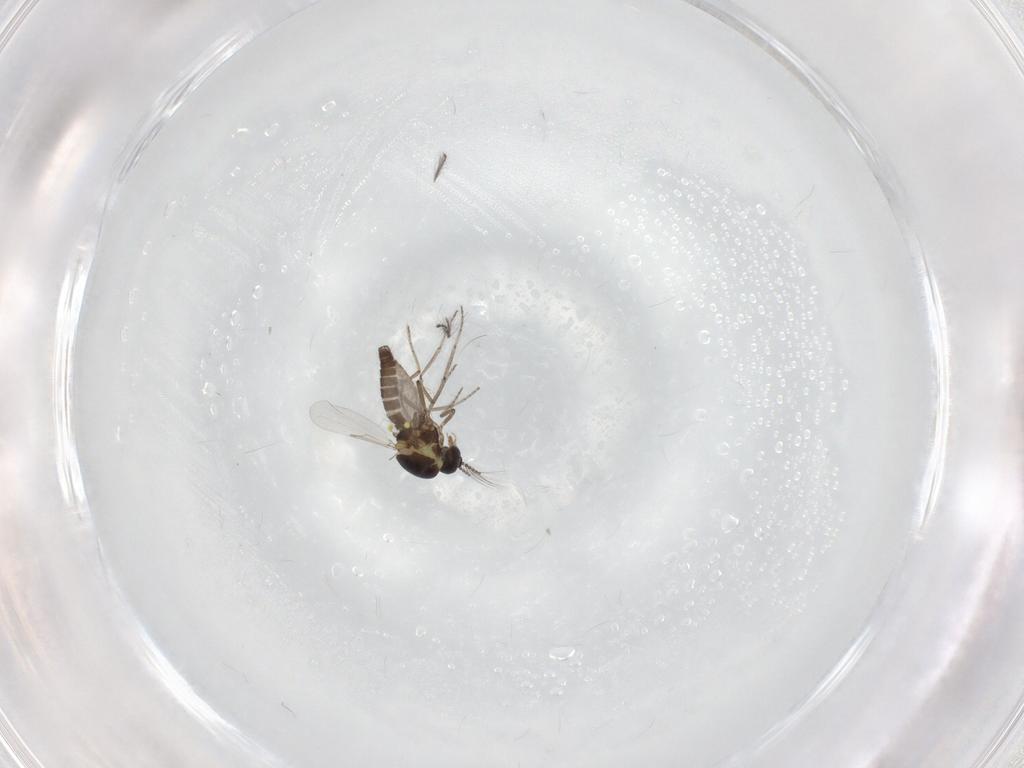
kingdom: Animalia
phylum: Arthropoda
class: Insecta
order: Diptera
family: Ceratopogonidae
